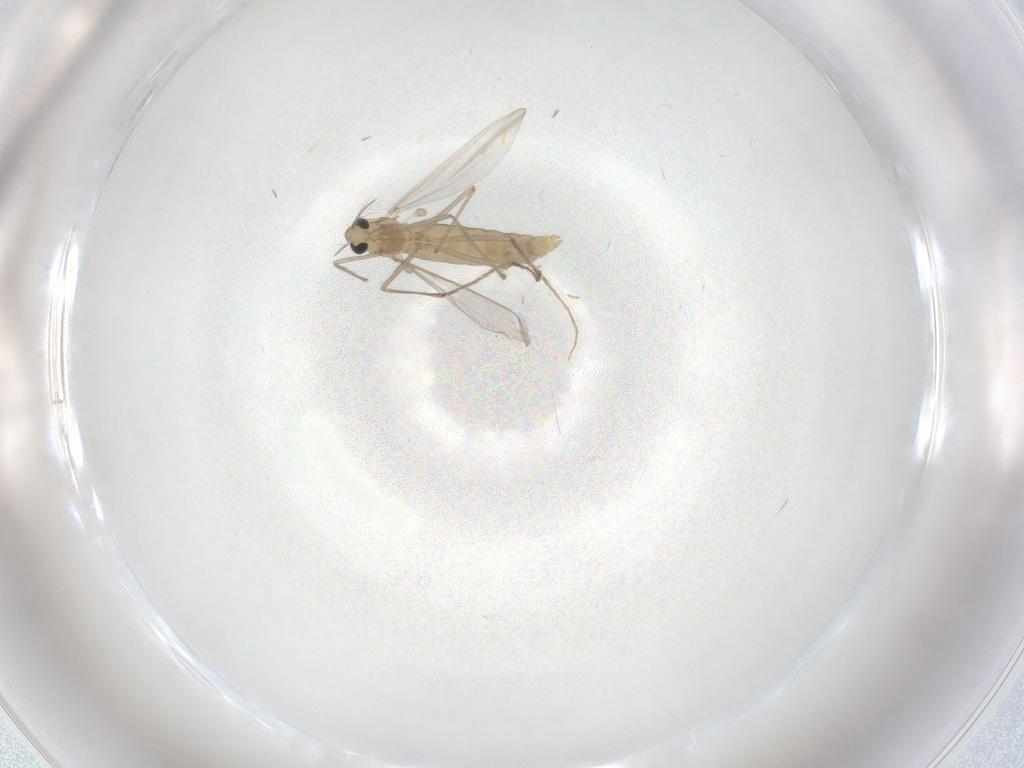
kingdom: Animalia
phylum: Arthropoda
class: Insecta
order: Diptera
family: Chironomidae
